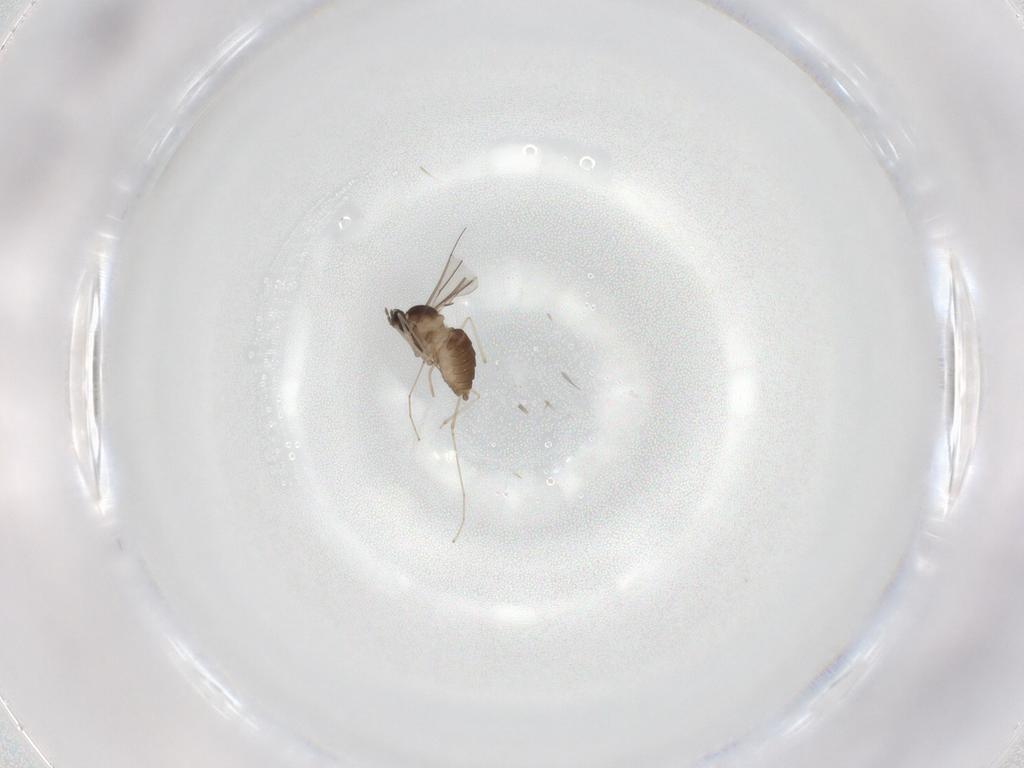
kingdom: Animalia
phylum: Arthropoda
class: Insecta
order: Diptera
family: Cecidomyiidae
